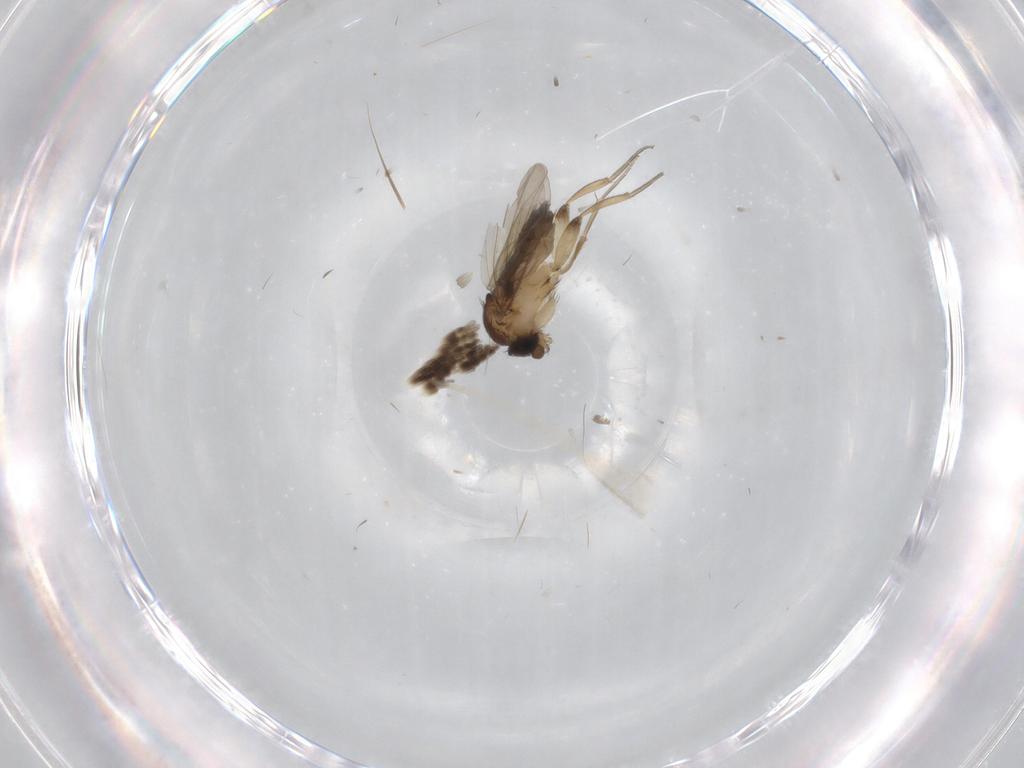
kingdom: Animalia
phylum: Arthropoda
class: Insecta
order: Diptera
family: Phoridae
